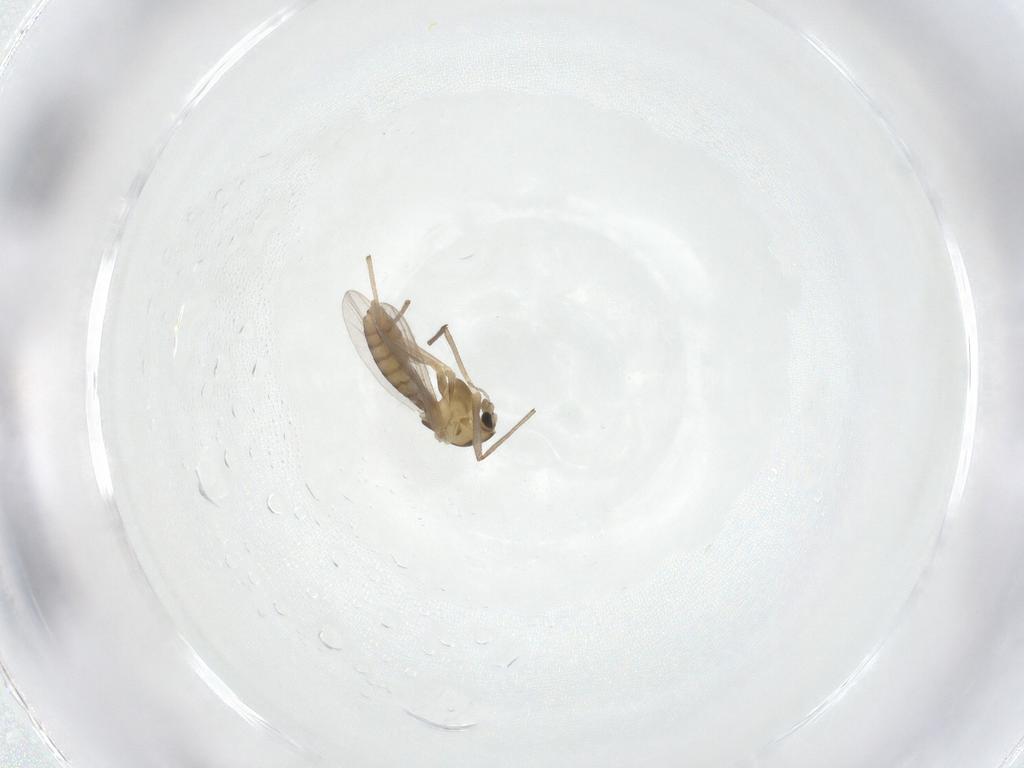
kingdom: Animalia
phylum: Arthropoda
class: Insecta
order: Diptera
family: Chironomidae
